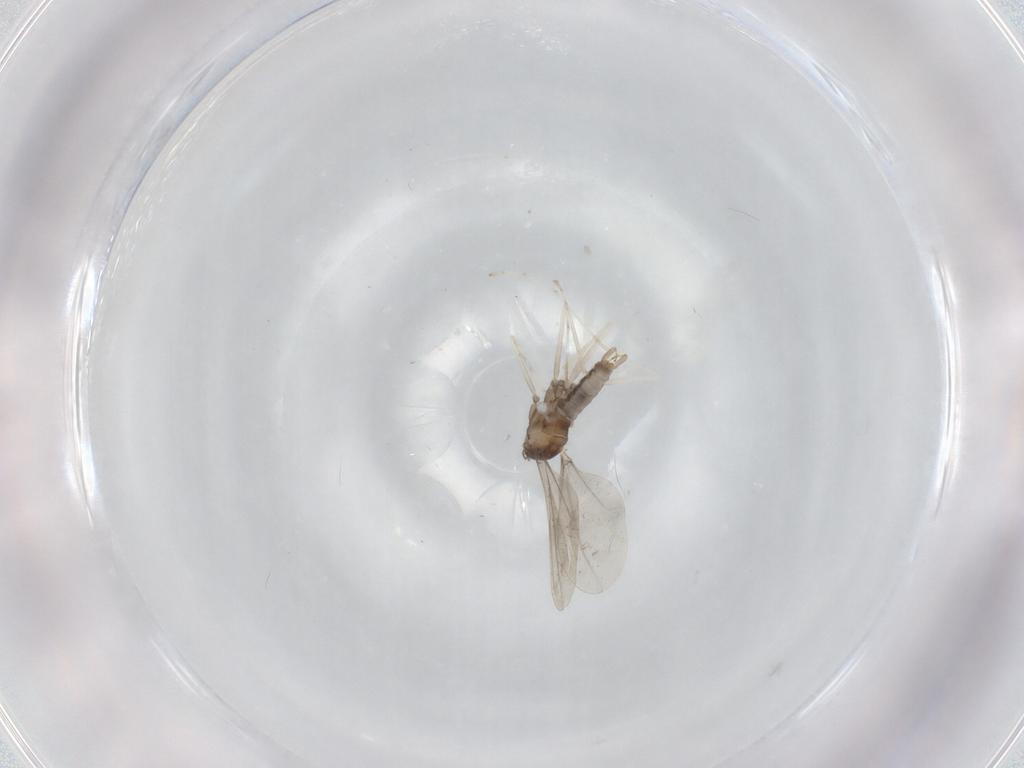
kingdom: Animalia
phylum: Arthropoda
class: Insecta
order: Diptera
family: Cecidomyiidae
